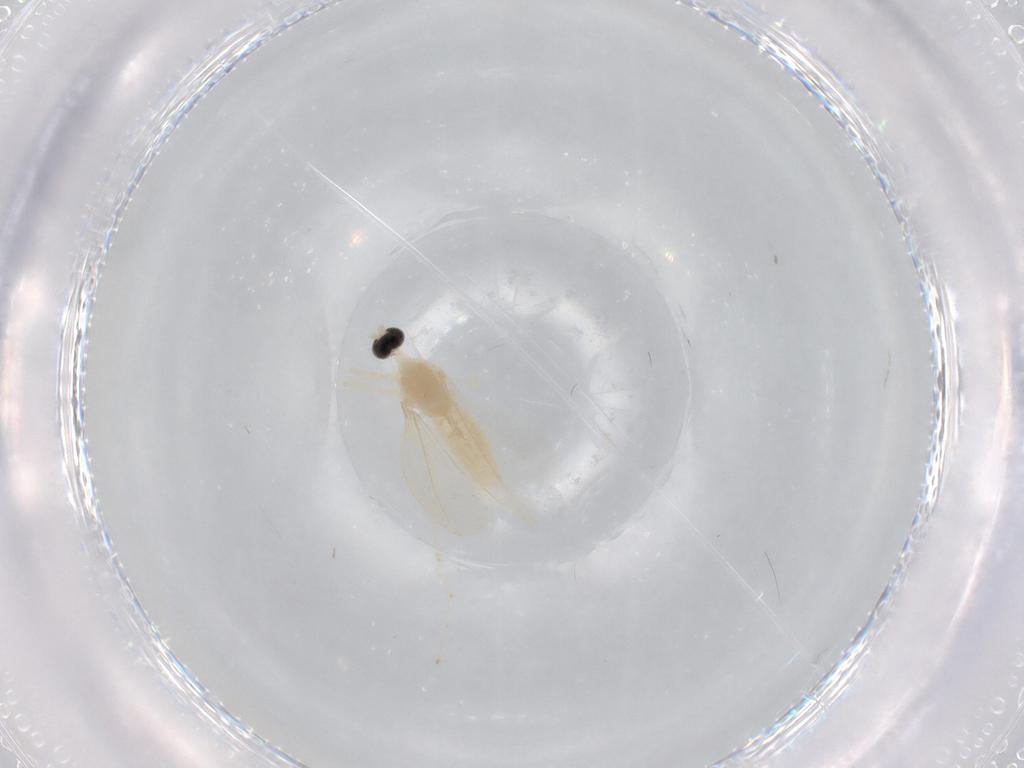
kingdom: Animalia
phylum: Arthropoda
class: Insecta
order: Diptera
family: Cecidomyiidae
